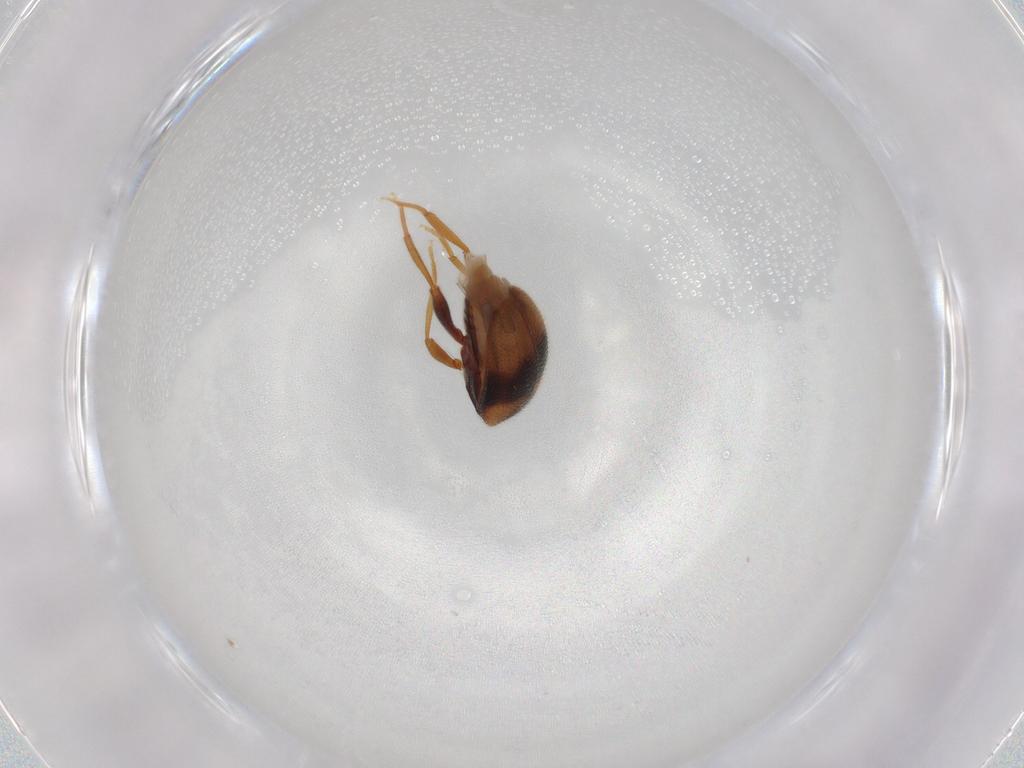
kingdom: Animalia
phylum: Arthropoda
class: Insecta
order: Coleoptera
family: Aderidae
